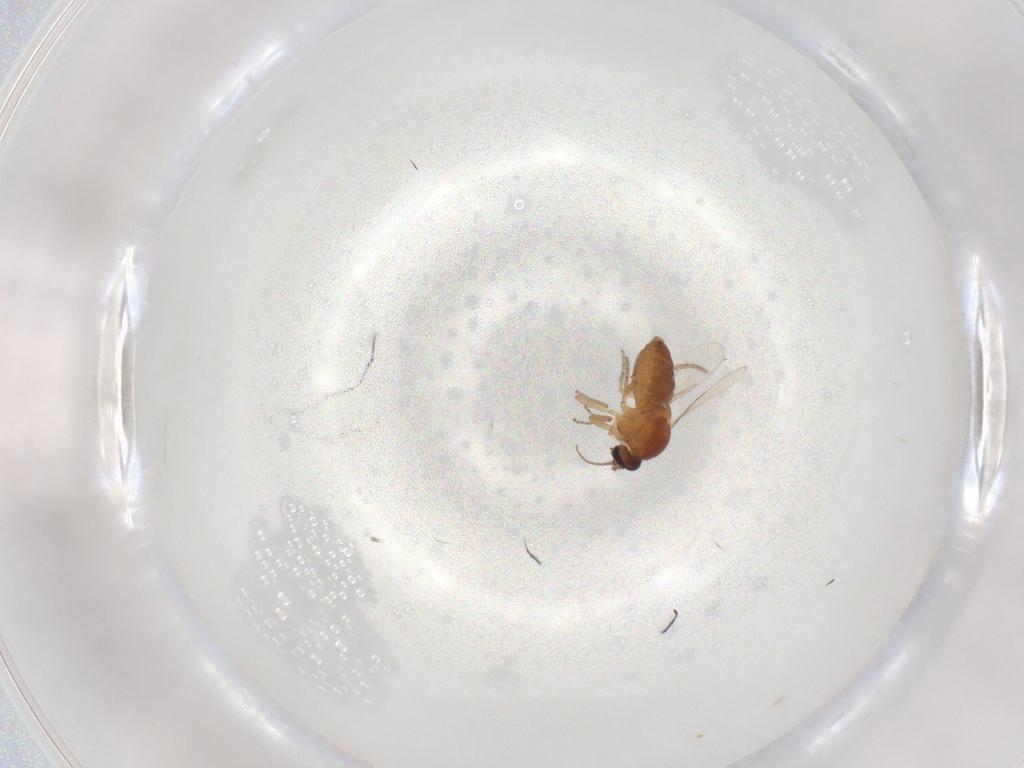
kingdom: Animalia
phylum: Arthropoda
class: Insecta
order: Diptera
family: Ceratopogonidae
